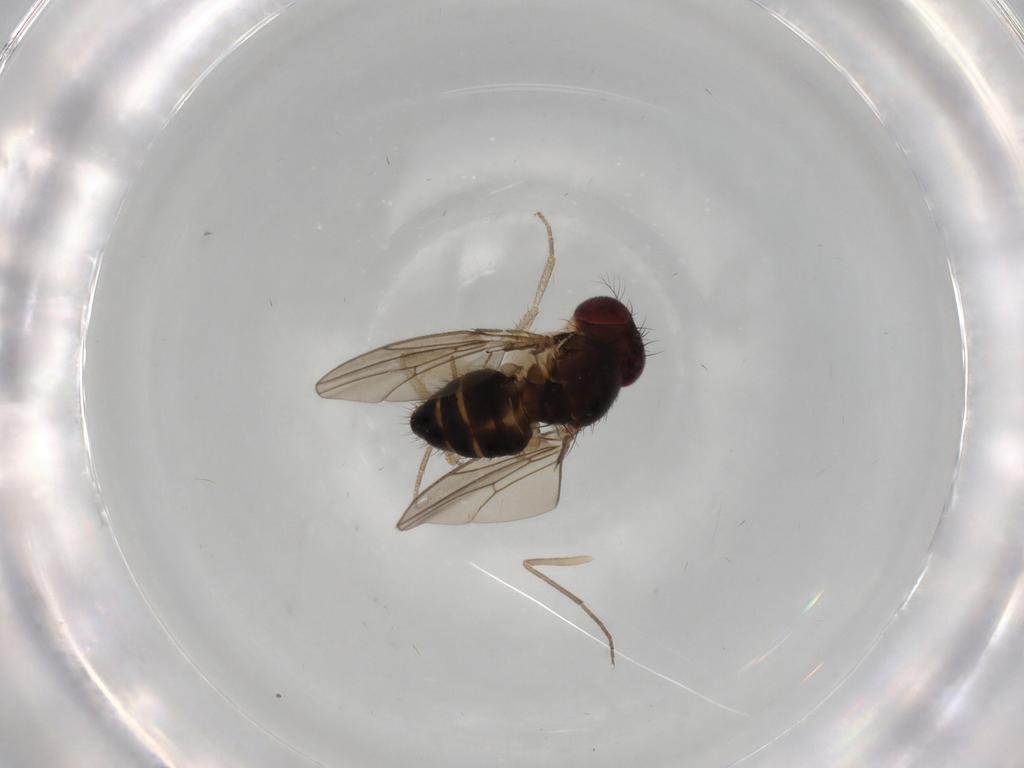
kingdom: Animalia
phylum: Arthropoda
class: Insecta
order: Diptera
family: Drosophilidae
